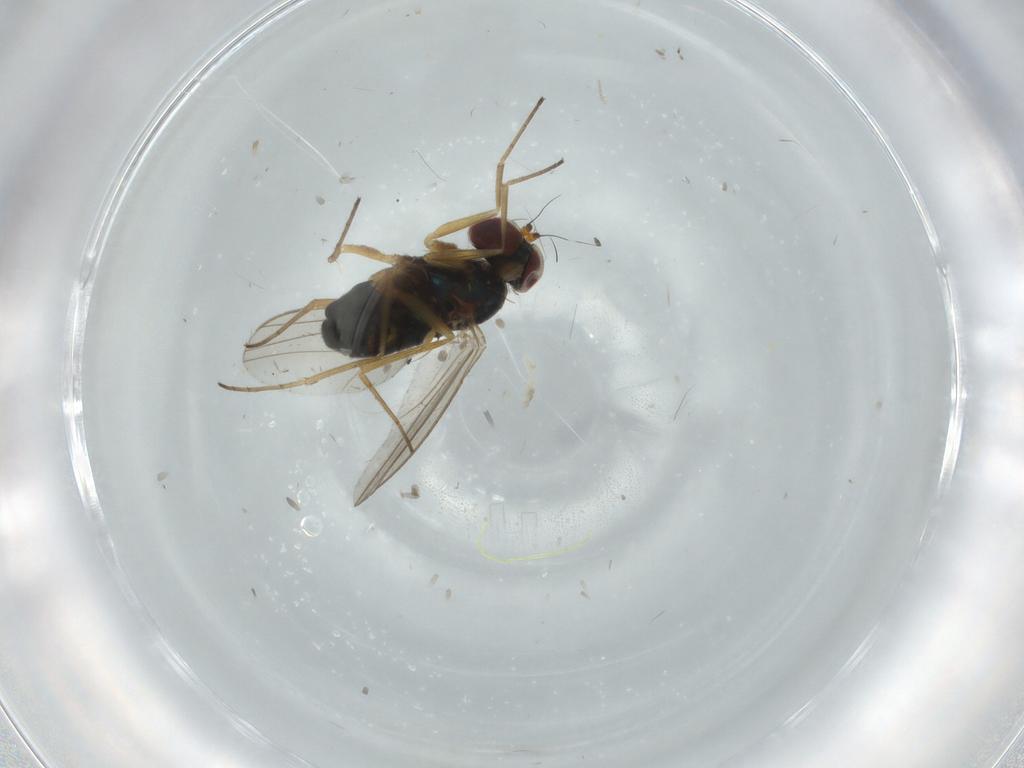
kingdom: Animalia
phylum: Arthropoda
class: Insecta
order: Diptera
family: Dolichopodidae
